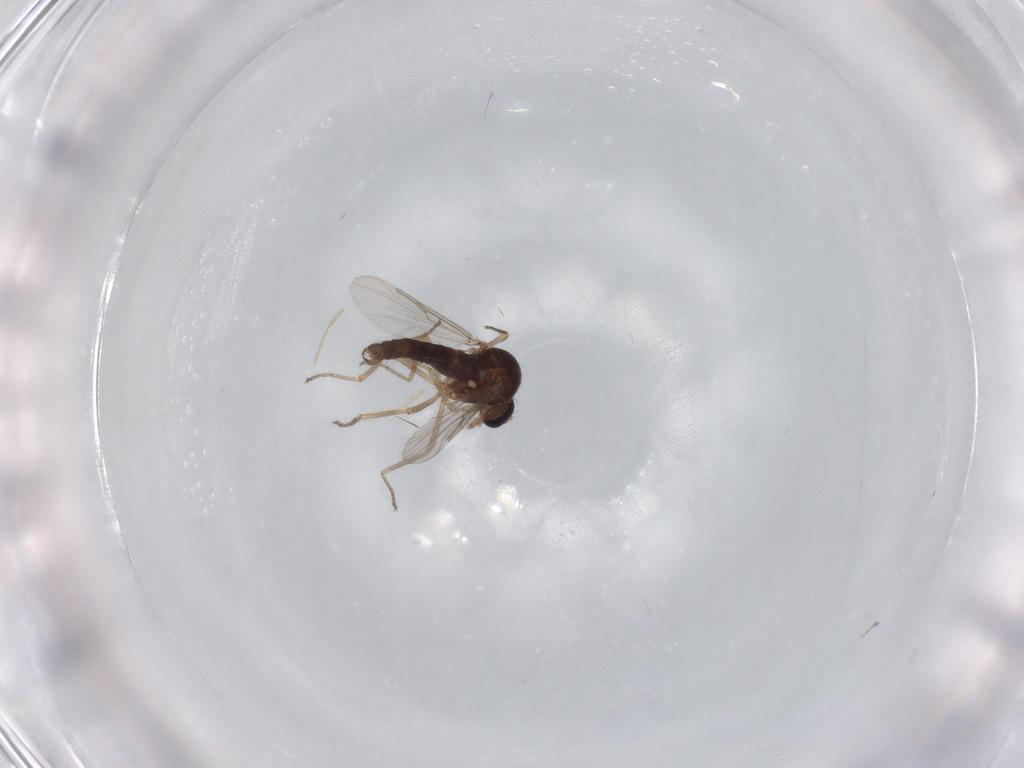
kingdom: Animalia
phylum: Arthropoda
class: Insecta
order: Diptera
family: Ceratopogonidae
